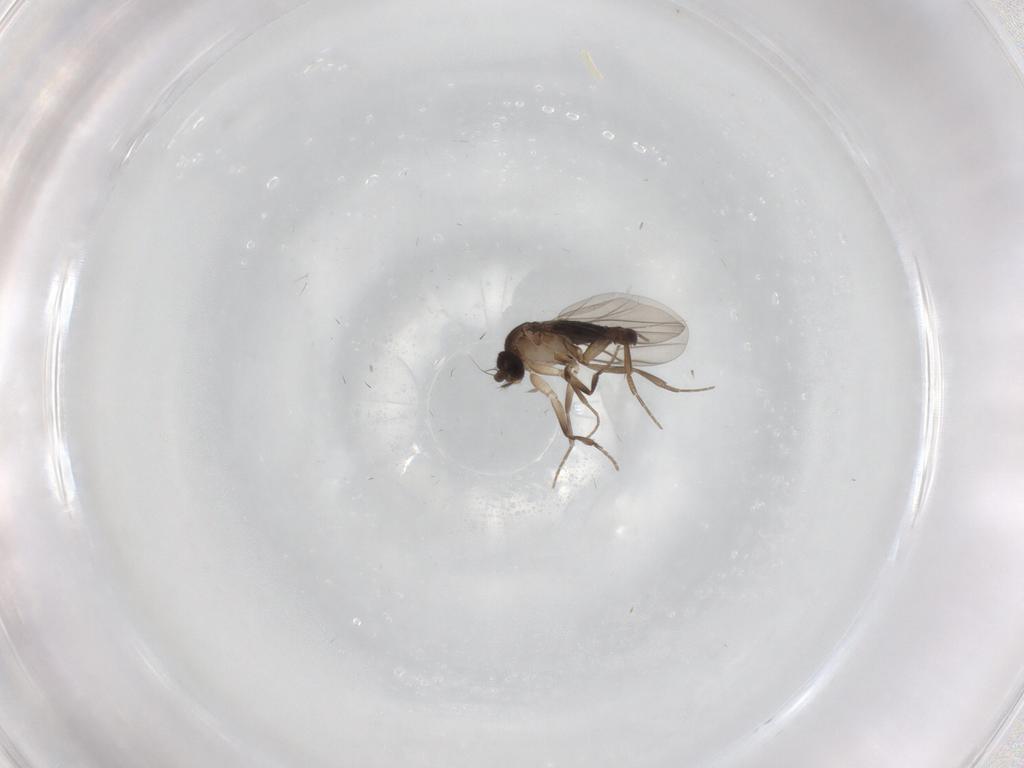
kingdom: Animalia
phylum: Arthropoda
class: Insecta
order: Diptera
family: Phoridae
